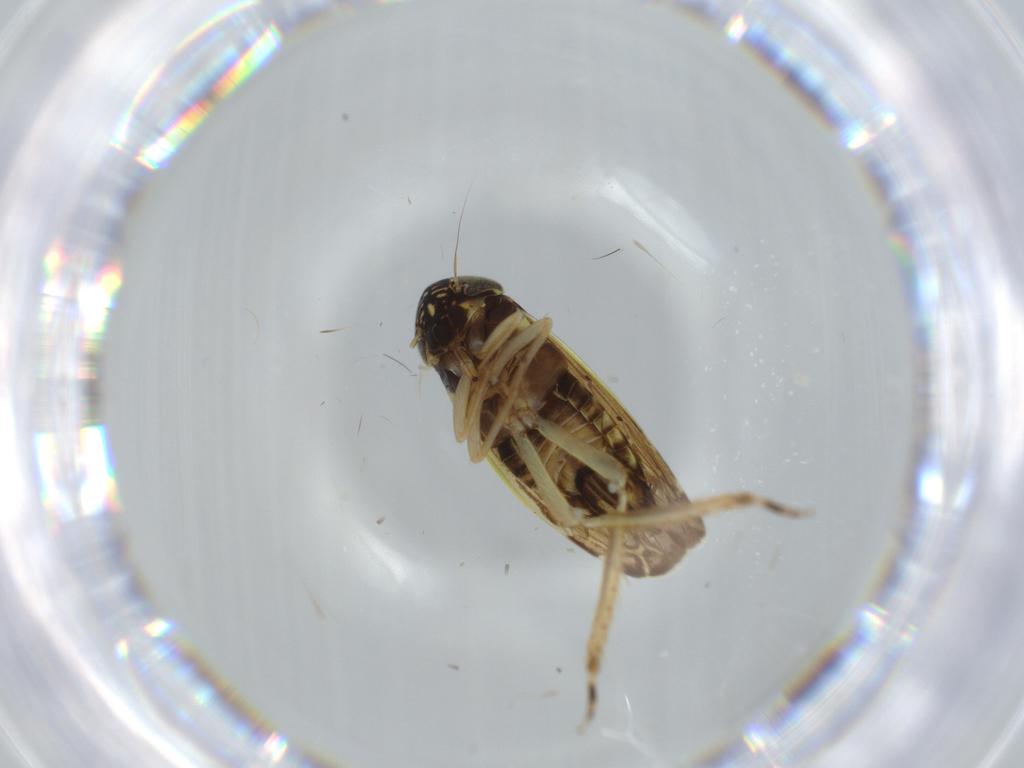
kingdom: Animalia
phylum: Arthropoda
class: Insecta
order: Hemiptera
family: Cicadellidae
